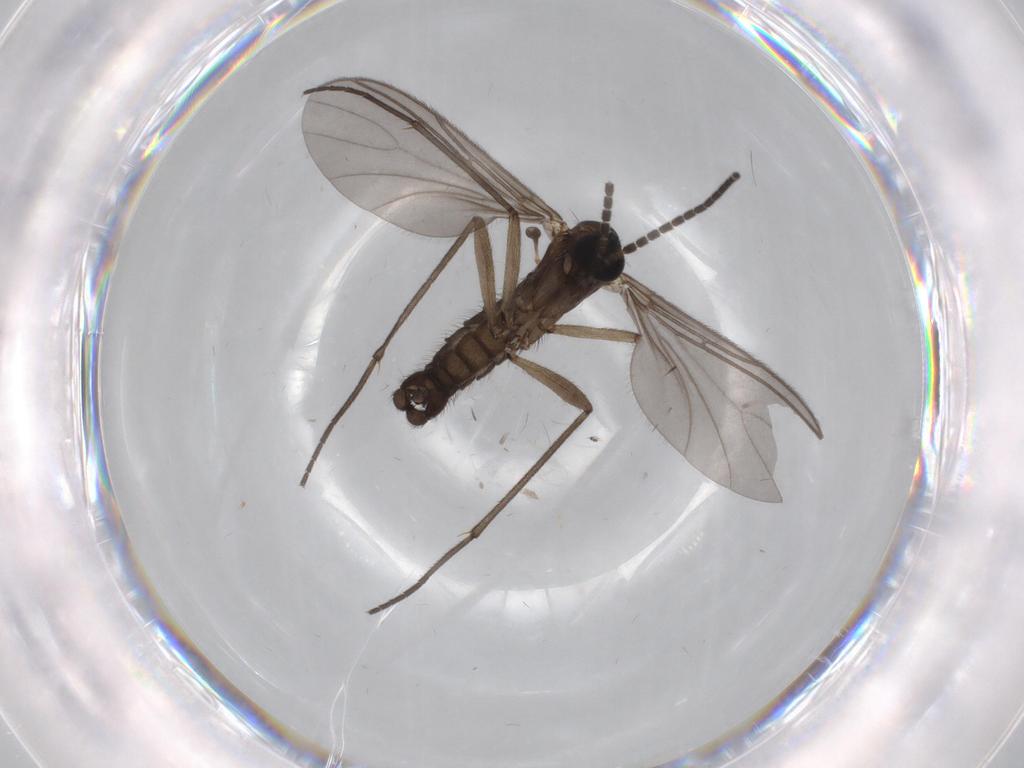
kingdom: Animalia
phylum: Arthropoda
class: Insecta
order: Diptera
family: Sciaridae
